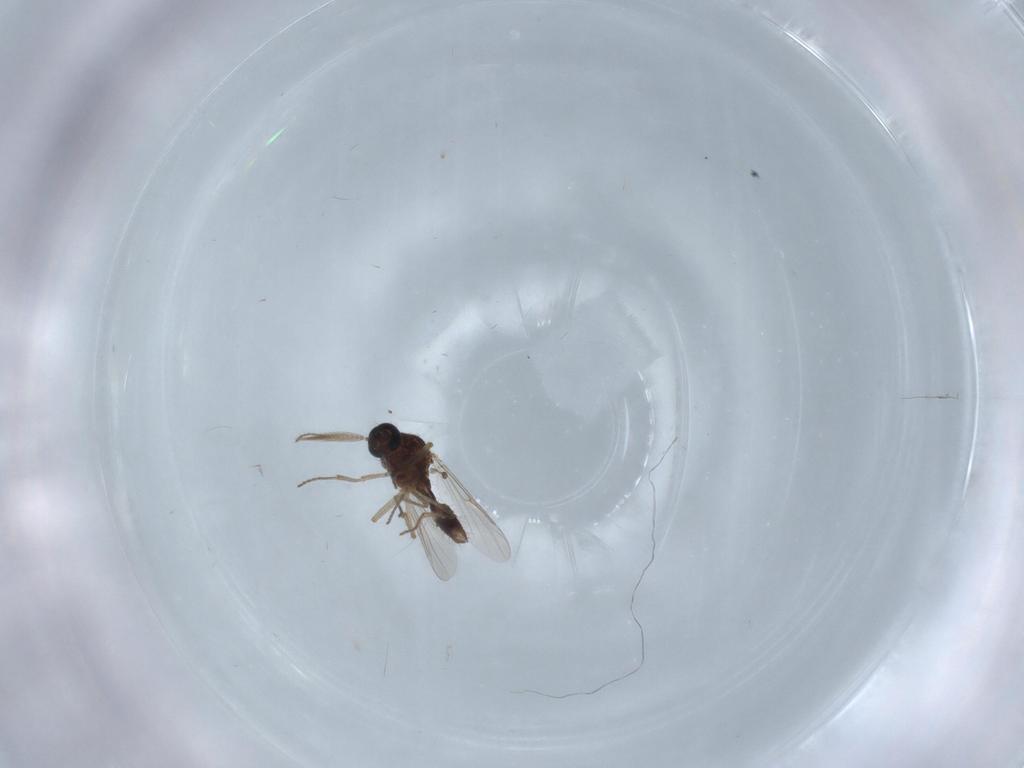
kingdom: Animalia
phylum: Arthropoda
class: Insecta
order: Diptera
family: Ceratopogonidae
